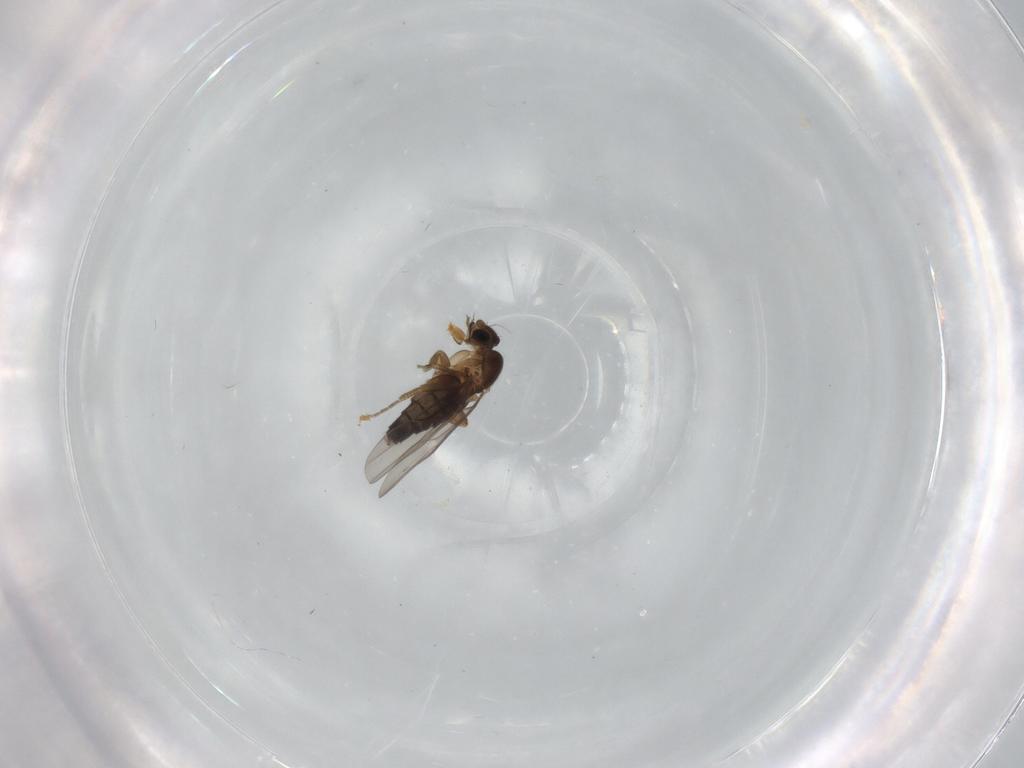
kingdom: Animalia
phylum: Arthropoda
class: Insecta
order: Diptera
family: Phoridae
